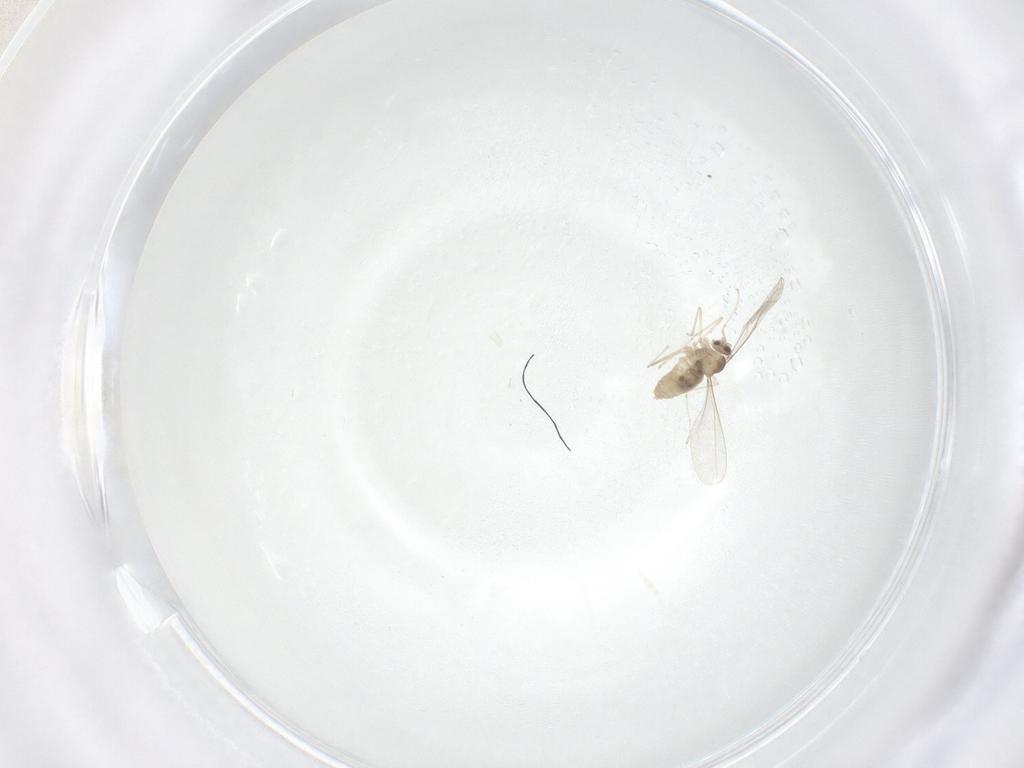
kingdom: Animalia
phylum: Arthropoda
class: Insecta
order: Diptera
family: Cecidomyiidae
